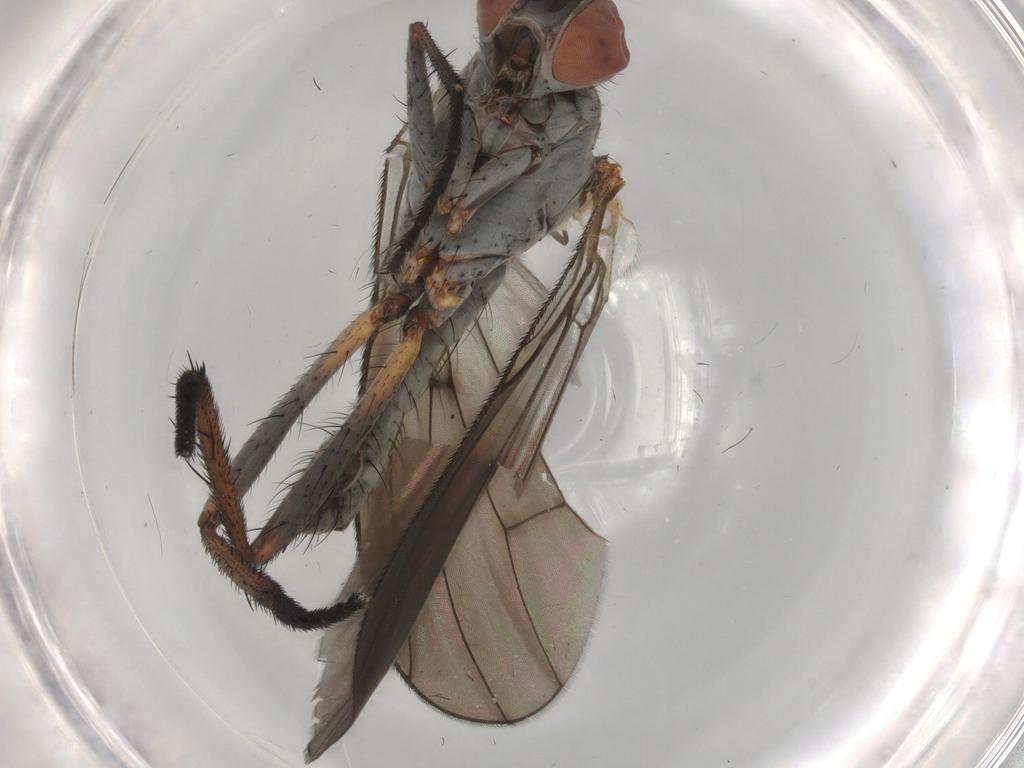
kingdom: Animalia
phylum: Arthropoda
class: Insecta
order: Diptera
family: Anthomyiidae
